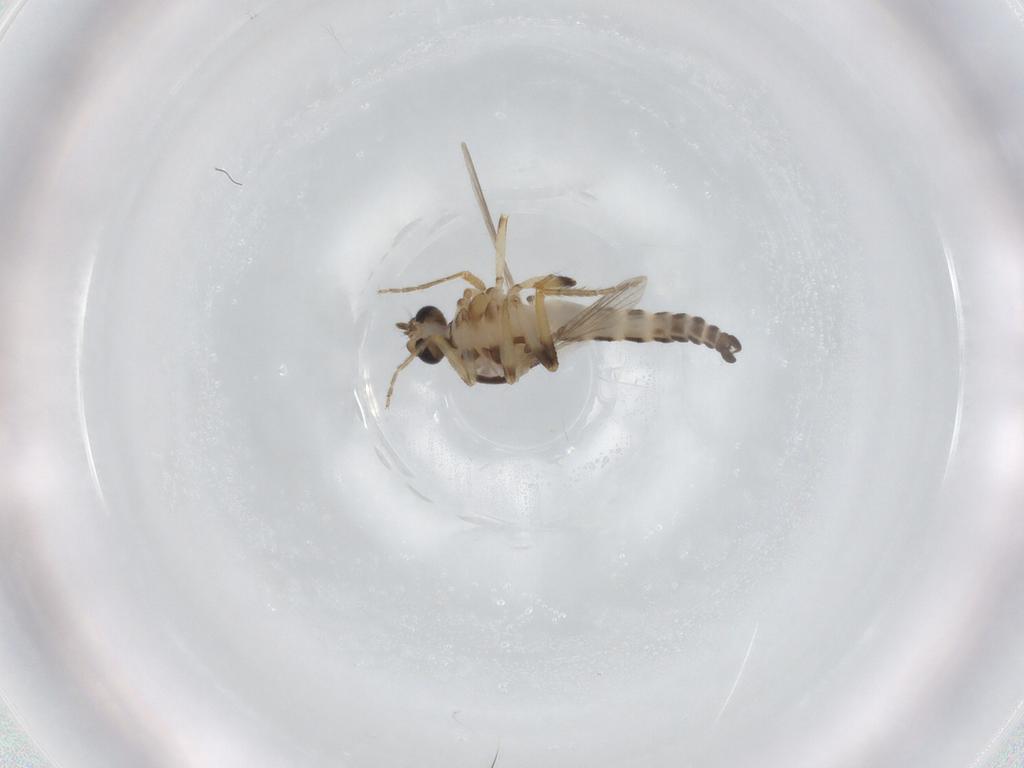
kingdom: Animalia
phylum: Arthropoda
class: Insecta
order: Diptera
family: Ceratopogonidae
